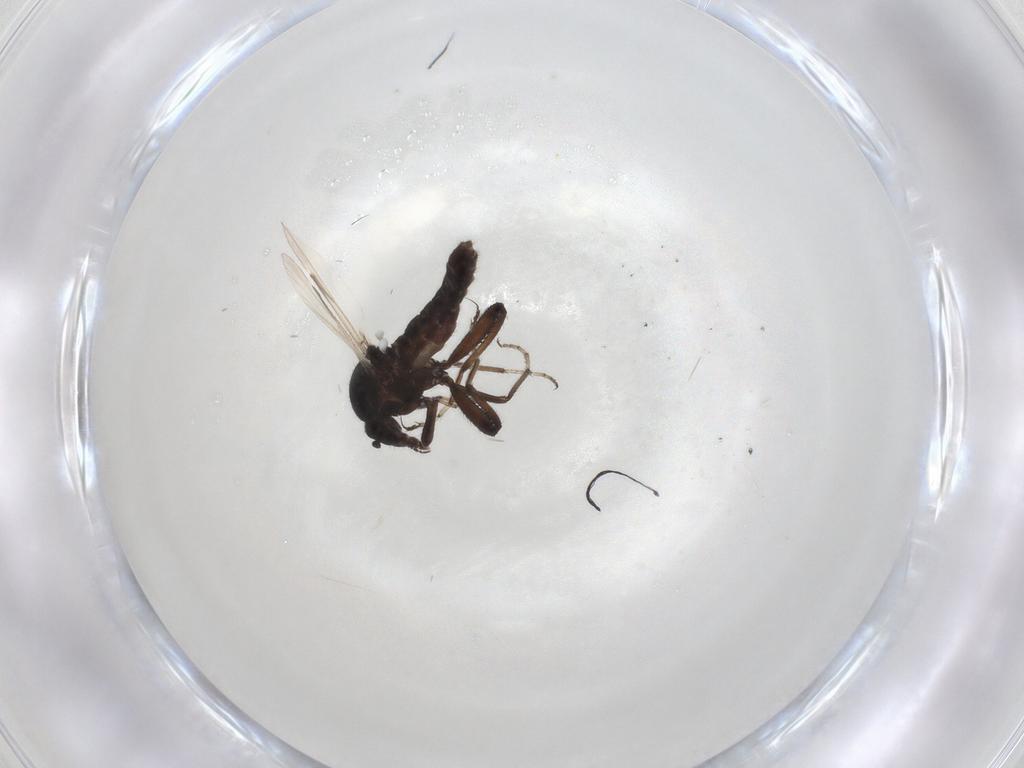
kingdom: Animalia
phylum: Arthropoda
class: Insecta
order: Diptera
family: Ceratopogonidae
